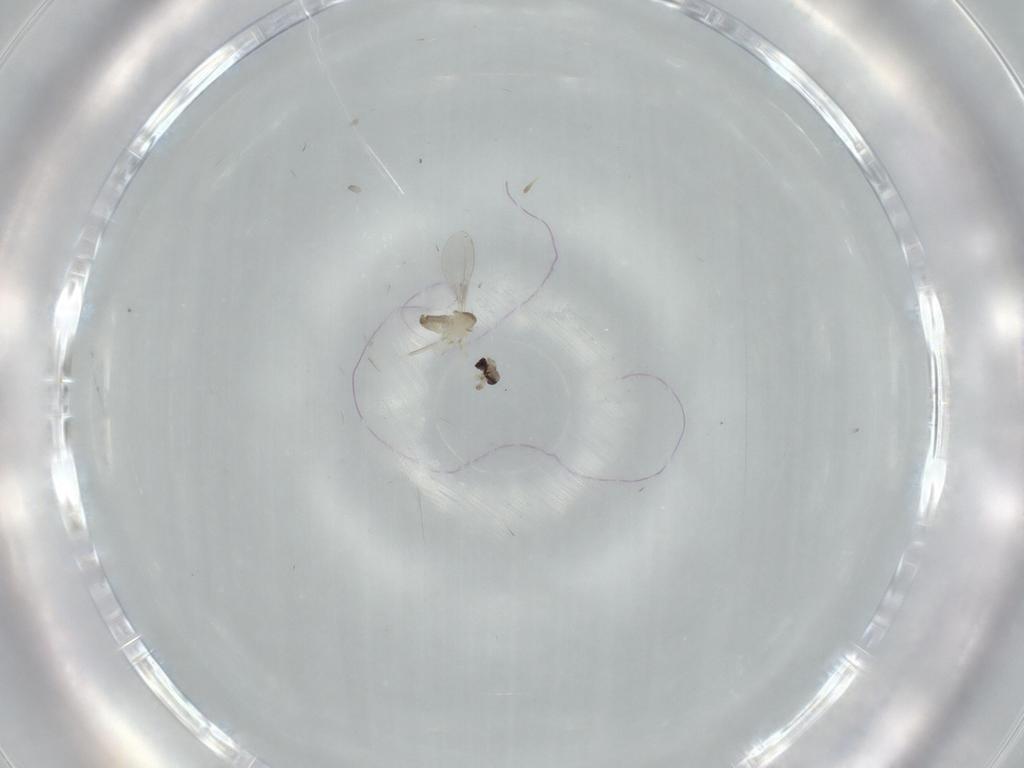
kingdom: Animalia
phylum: Arthropoda
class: Insecta
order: Diptera
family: Cecidomyiidae
